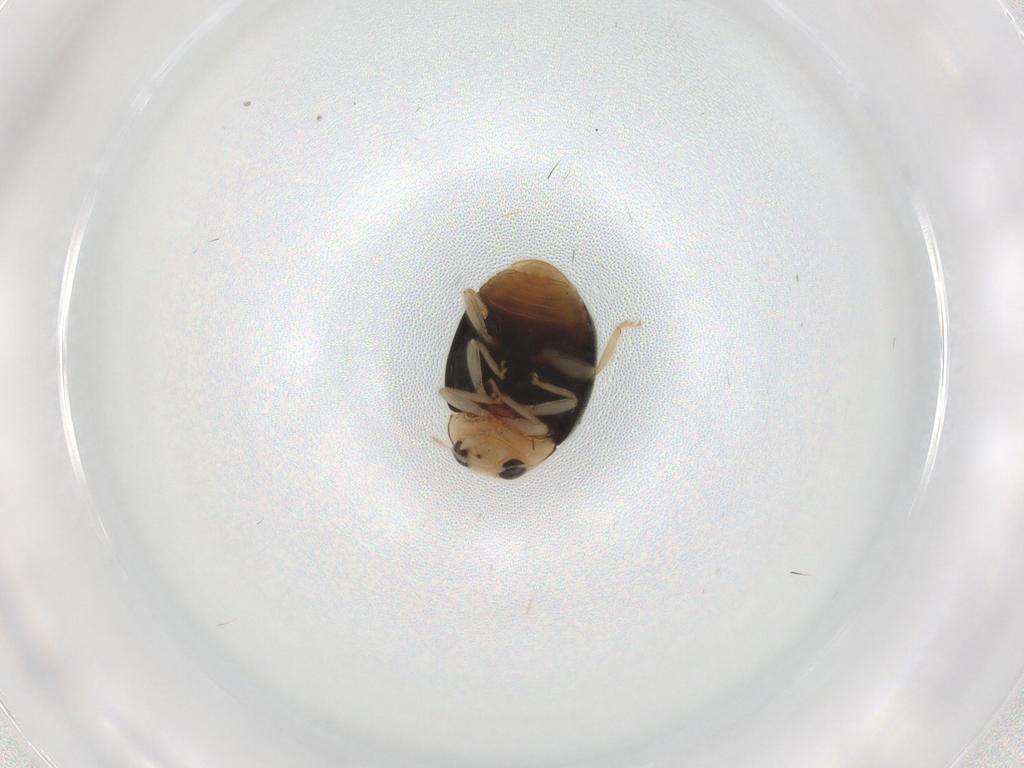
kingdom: Animalia
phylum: Arthropoda
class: Insecta
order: Coleoptera
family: Coccinellidae
